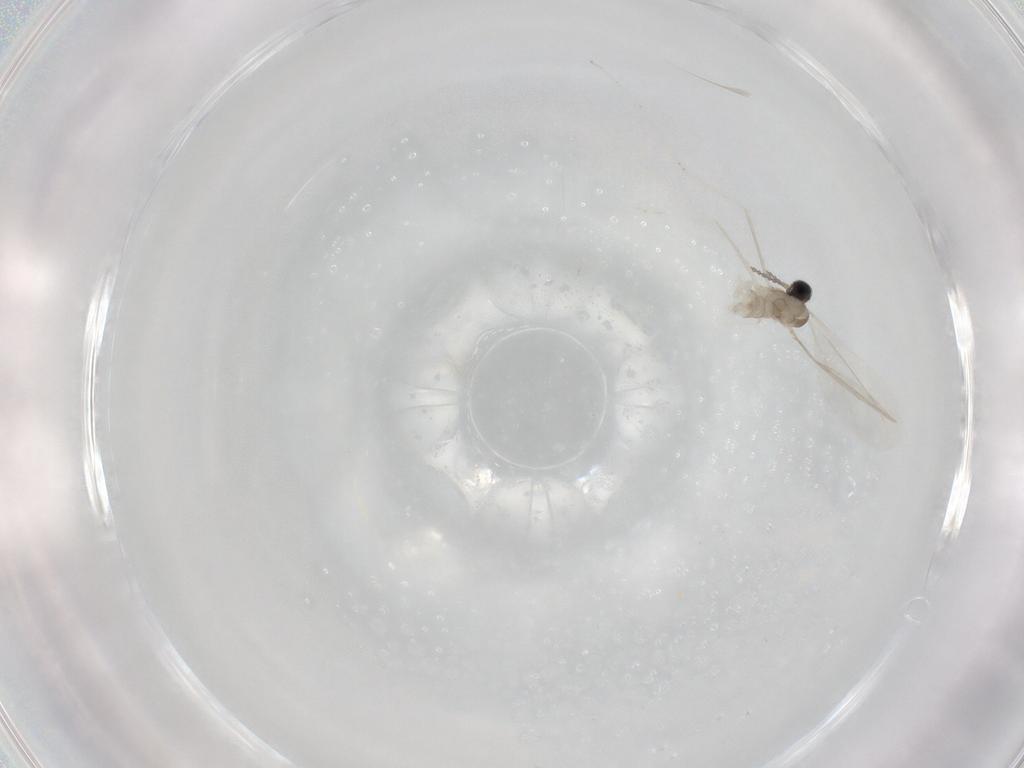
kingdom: Animalia
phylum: Arthropoda
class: Insecta
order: Diptera
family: Cecidomyiidae
